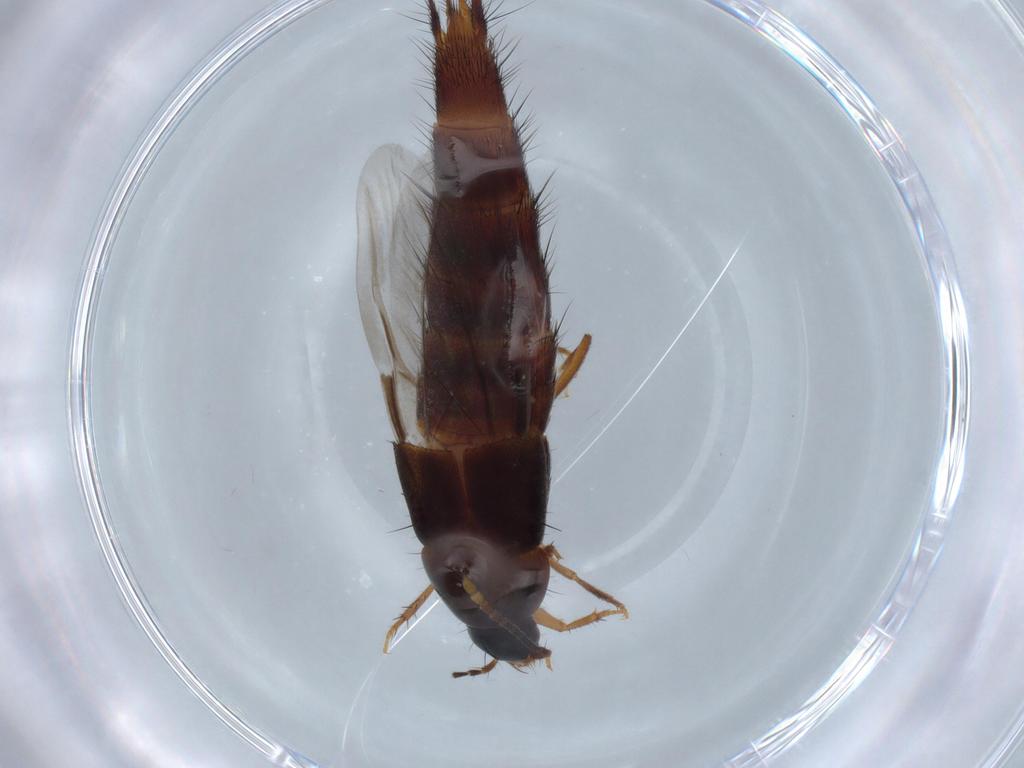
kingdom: Animalia
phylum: Arthropoda
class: Insecta
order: Coleoptera
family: Staphylinidae
